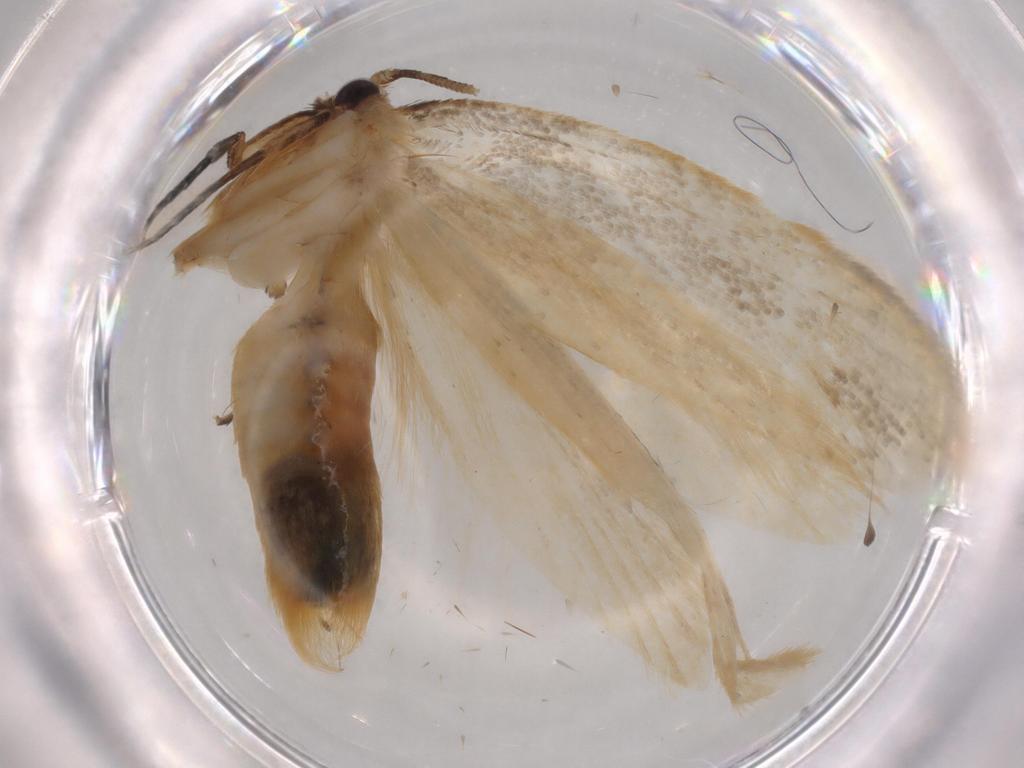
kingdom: Animalia
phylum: Arthropoda
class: Insecta
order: Lepidoptera
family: Tineidae
